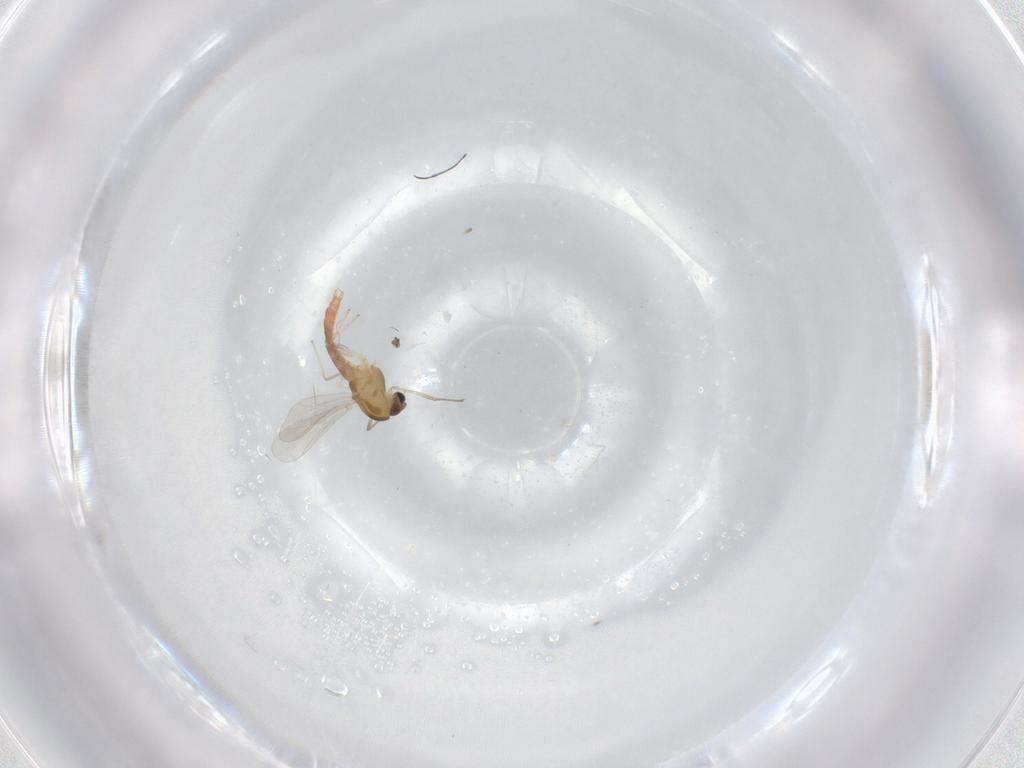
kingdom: Animalia
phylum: Arthropoda
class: Insecta
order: Diptera
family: Chironomidae
